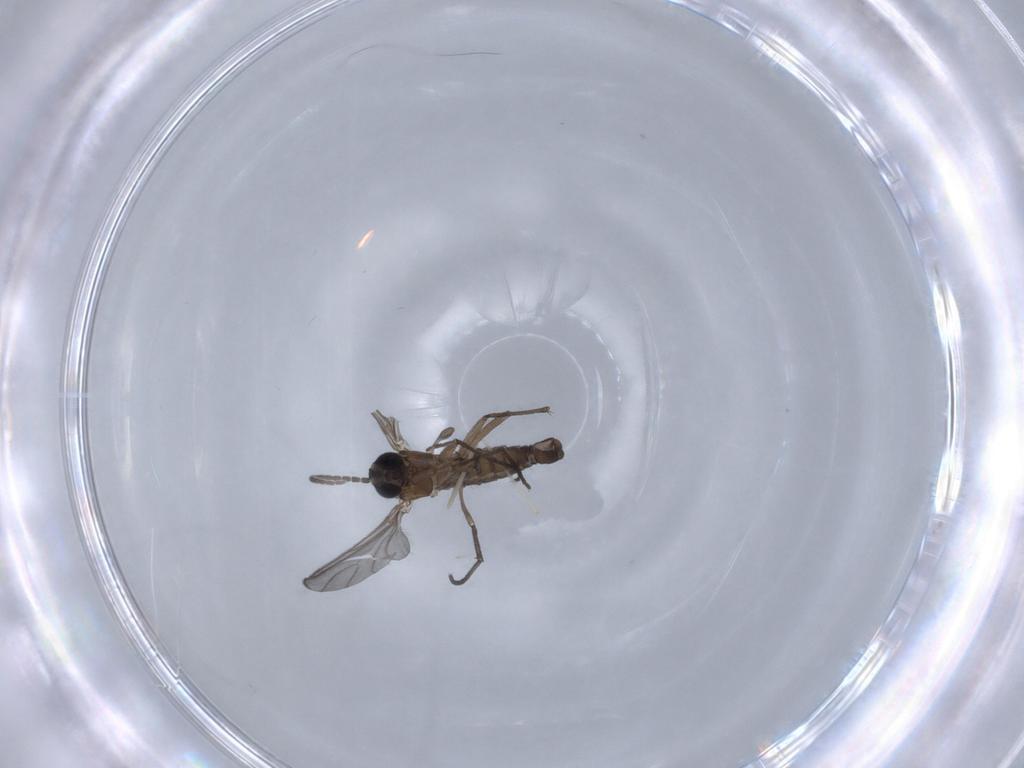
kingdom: Animalia
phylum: Arthropoda
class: Insecta
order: Diptera
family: Sciaridae
